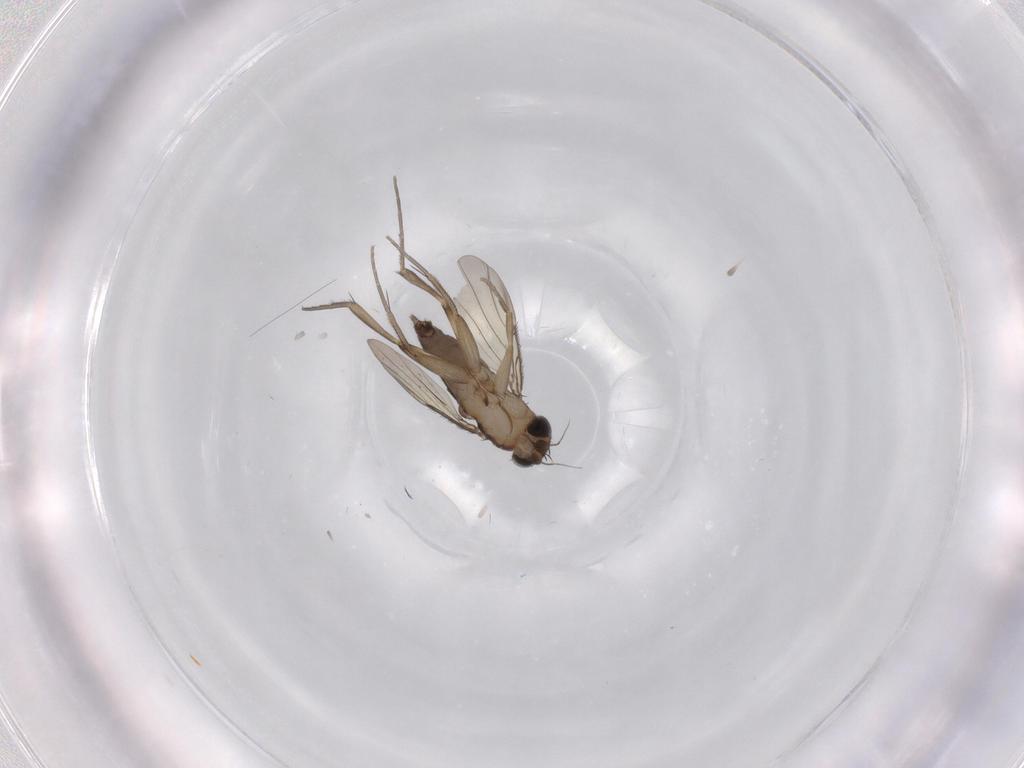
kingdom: Animalia
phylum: Arthropoda
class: Insecta
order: Diptera
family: Phoridae
